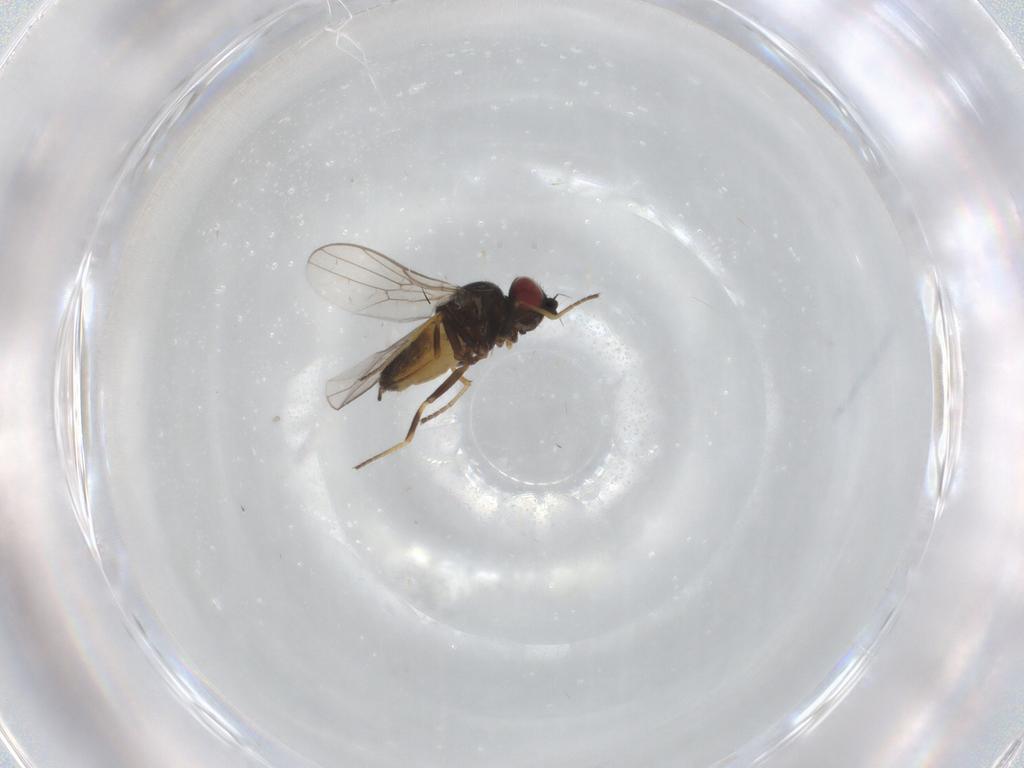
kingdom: Animalia
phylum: Arthropoda
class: Insecta
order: Diptera
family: Chloropidae
